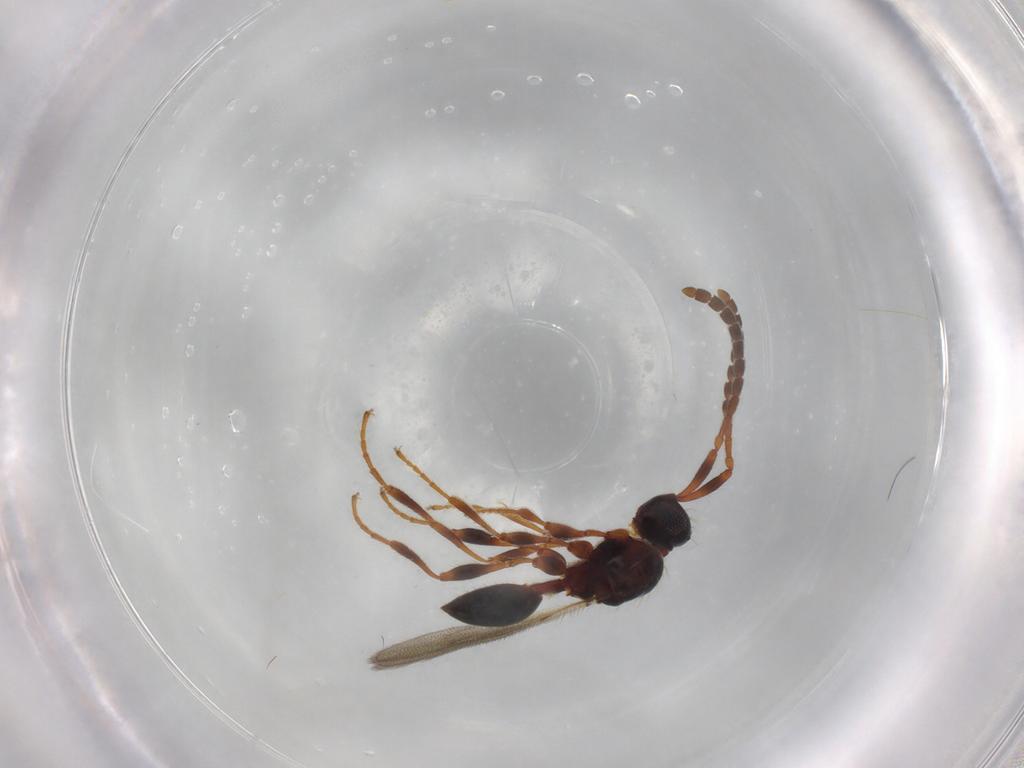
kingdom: Animalia
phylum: Arthropoda
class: Insecta
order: Hymenoptera
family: Diapriidae
